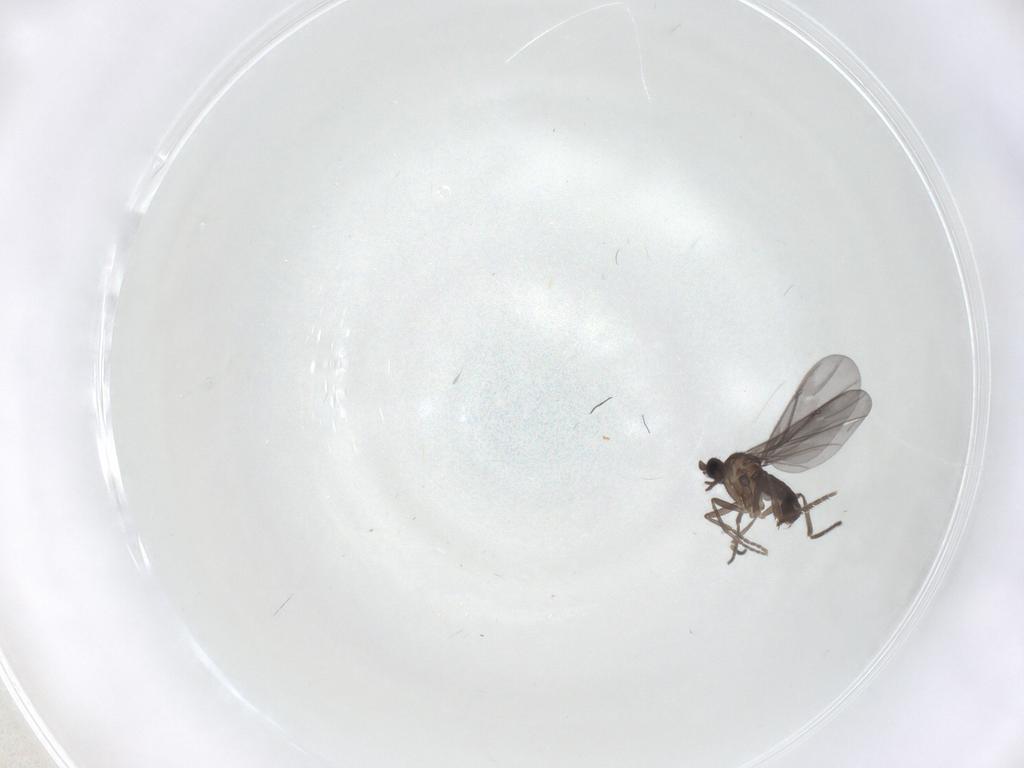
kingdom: Animalia
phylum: Arthropoda
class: Insecta
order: Diptera
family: Phoridae
